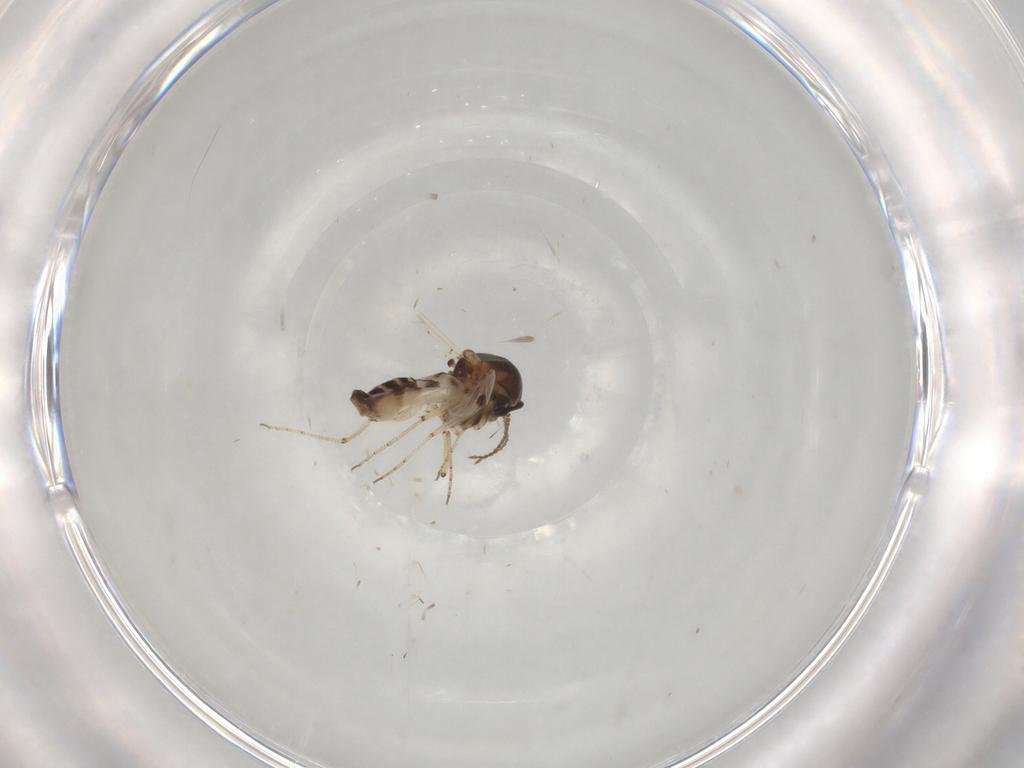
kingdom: Animalia
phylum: Arthropoda
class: Insecta
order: Diptera
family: Ceratopogonidae
